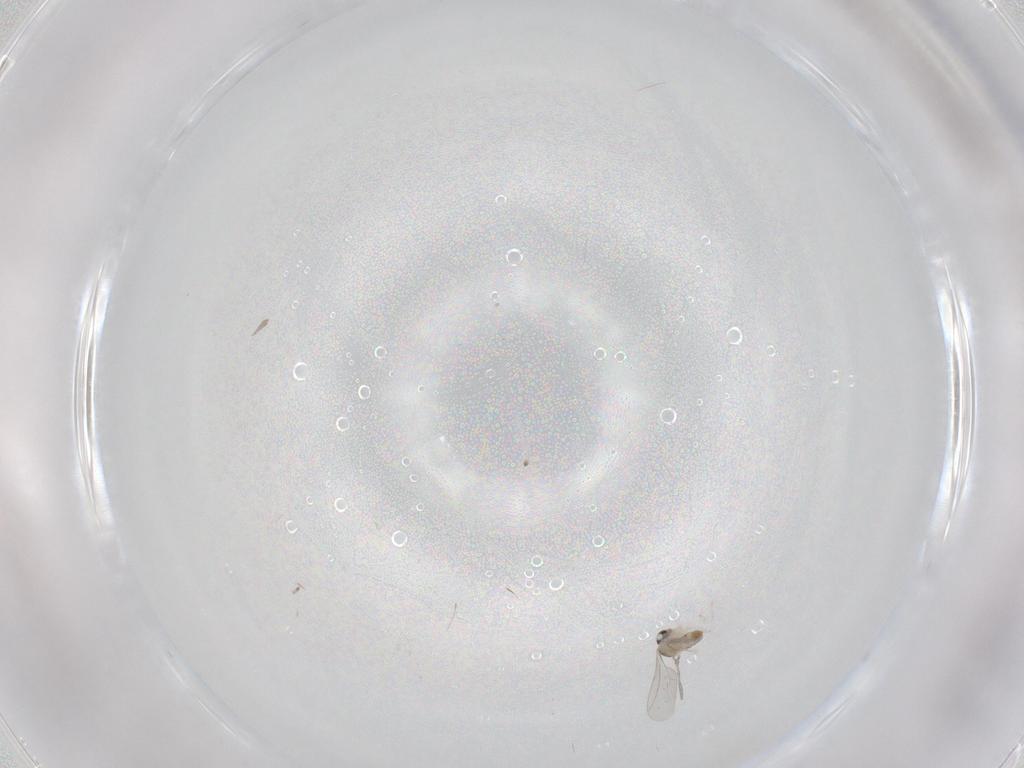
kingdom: Animalia
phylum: Arthropoda
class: Insecta
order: Diptera
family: Cecidomyiidae
